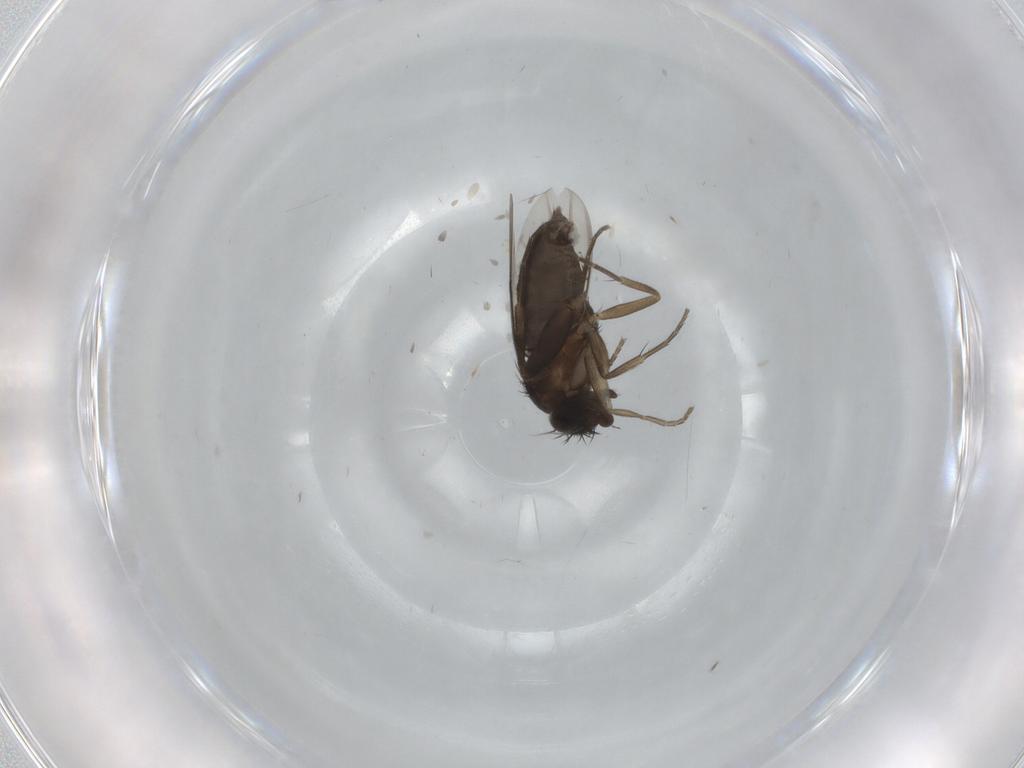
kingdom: Animalia
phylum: Arthropoda
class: Insecta
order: Diptera
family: Phoridae
